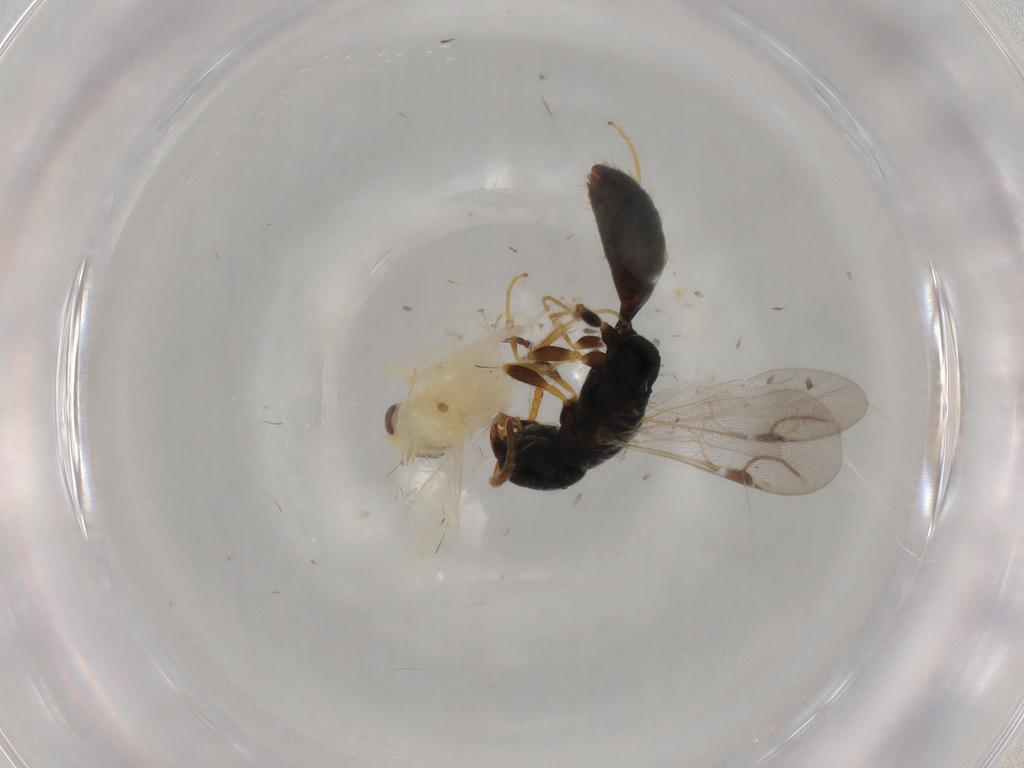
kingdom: Animalia
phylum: Arthropoda
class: Insecta
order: Hymenoptera
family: Bethylidae
